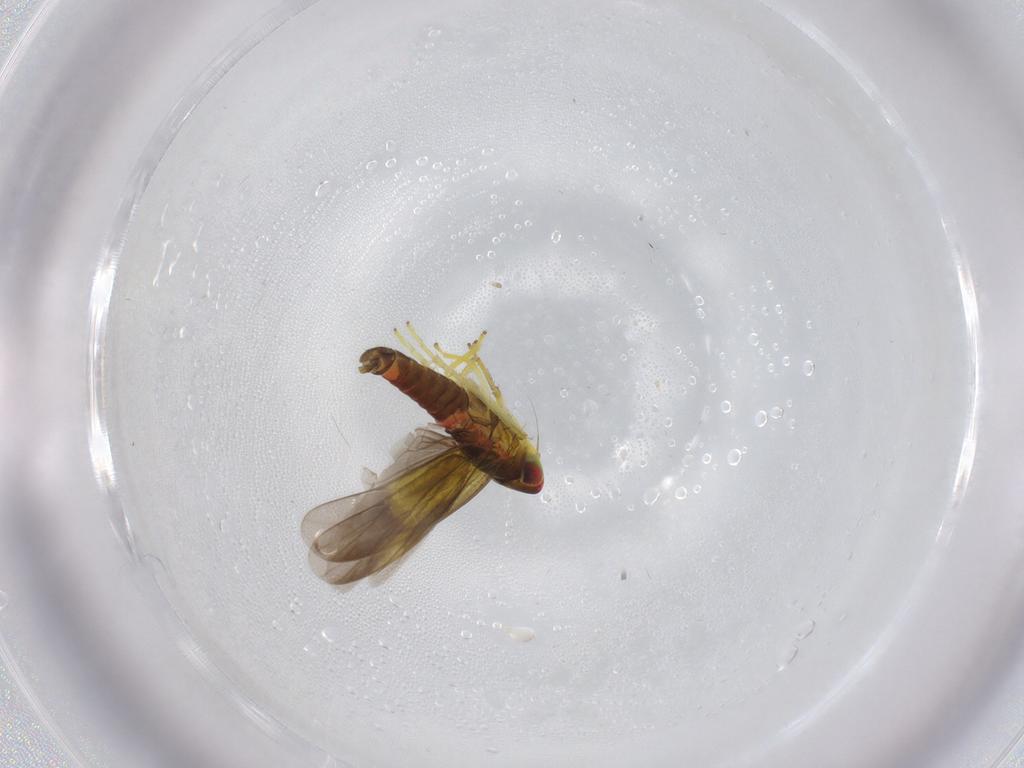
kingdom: Animalia
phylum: Arthropoda
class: Insecta
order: Hemiptera
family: Cicadellidae
